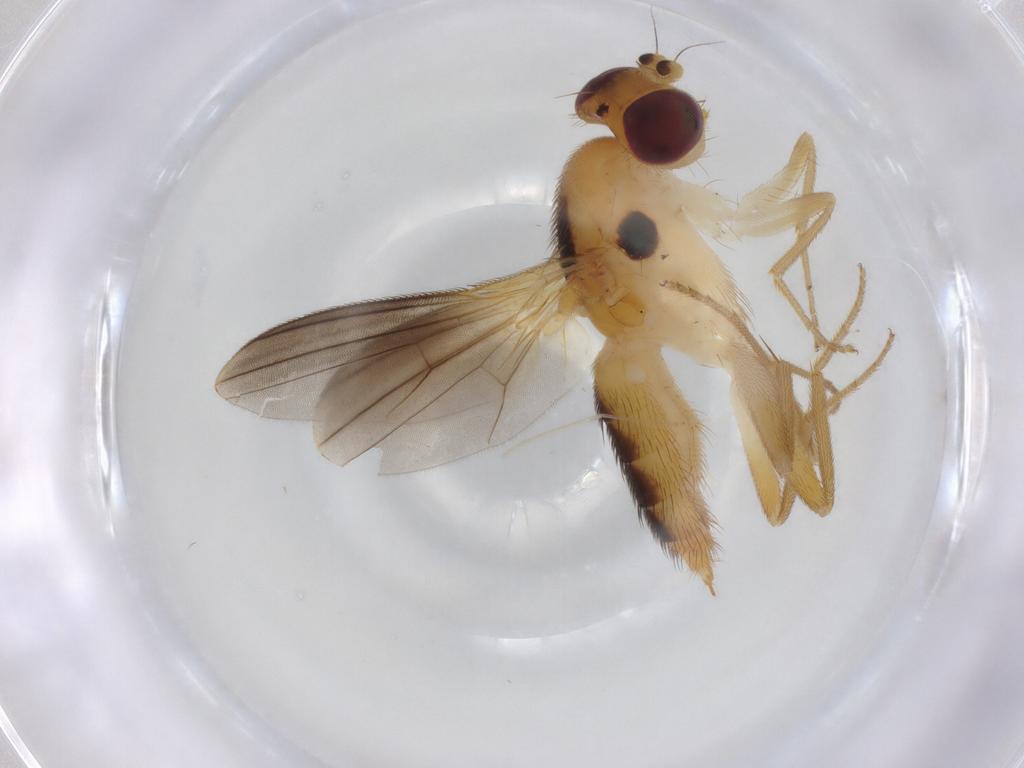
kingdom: Animalia
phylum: Arthropoda
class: Insecta
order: Diptera
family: Clusiidae
